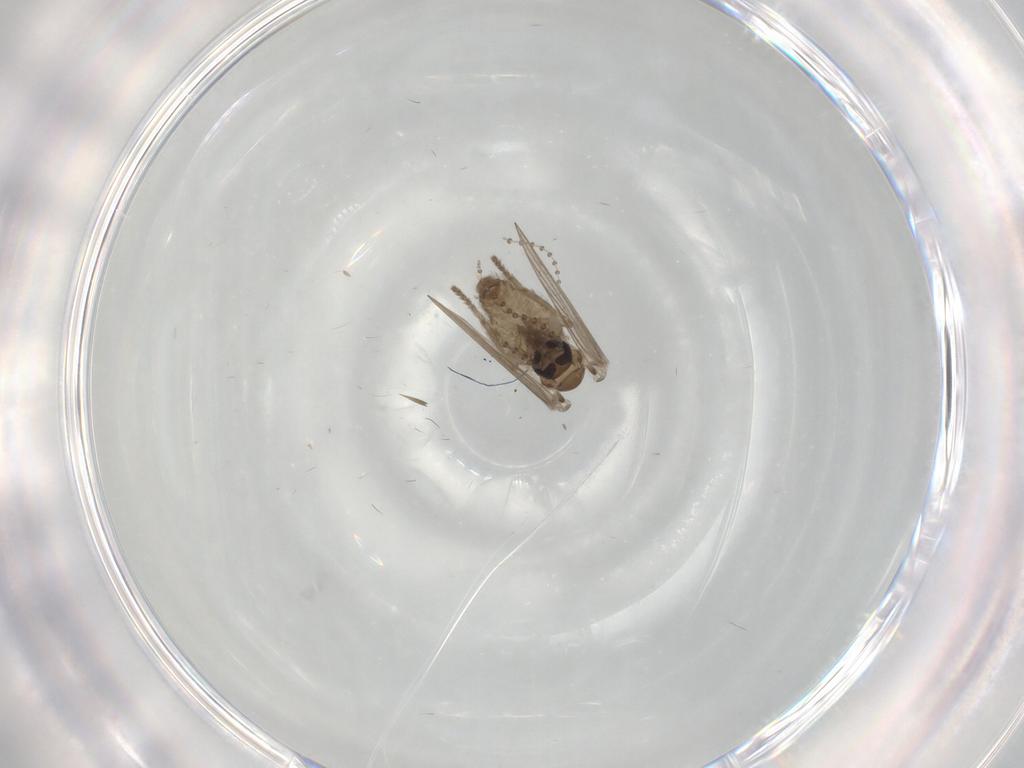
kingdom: Animalia
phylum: Arthropoda
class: Insecta
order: Diptera
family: Psychodidae
